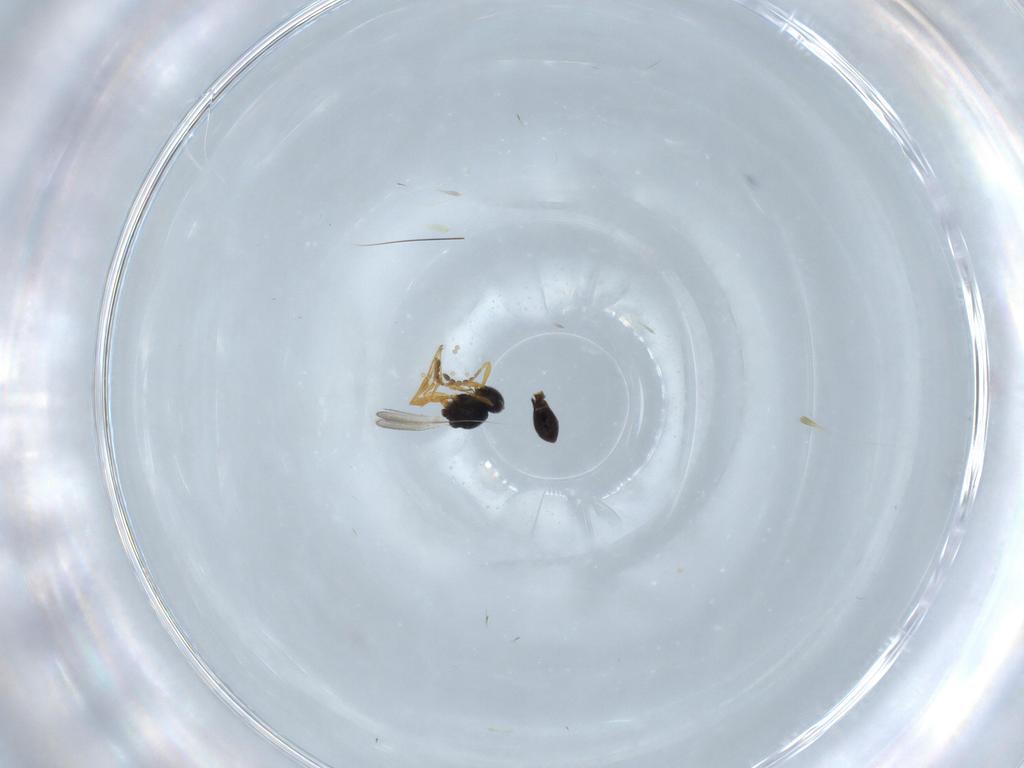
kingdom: Animalia
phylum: Arthropoda
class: Insecta
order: Hymenoptera
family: Platygastridae
